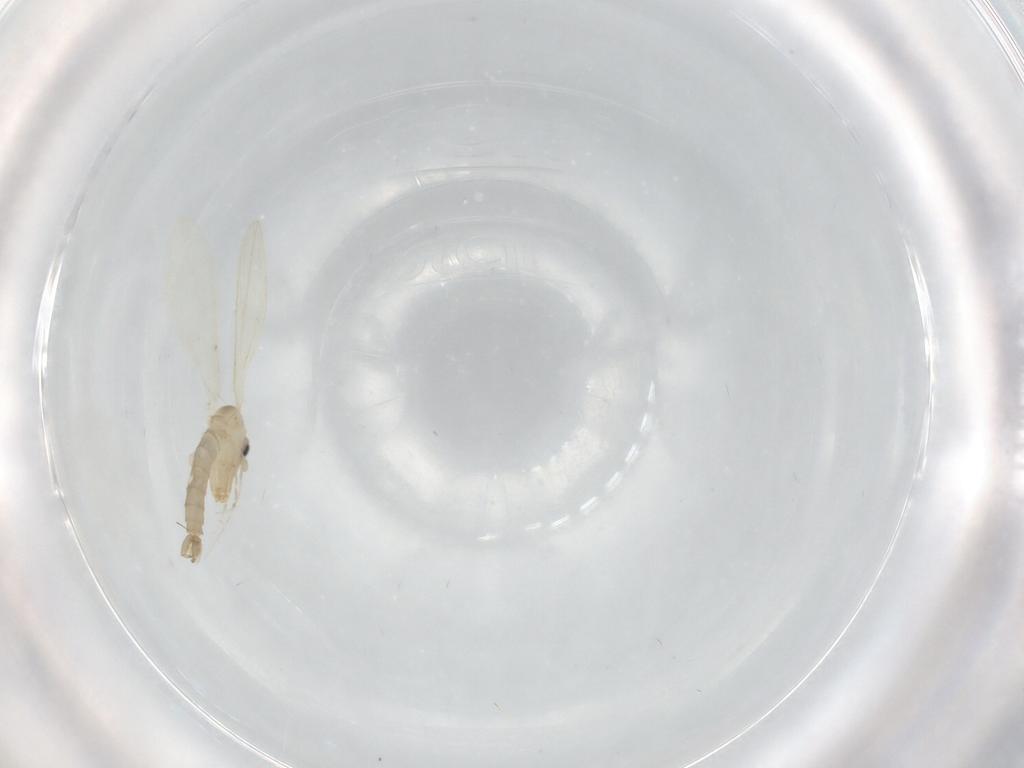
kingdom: Animalia
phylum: Arthropoda
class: Insecta
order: Diptera
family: Psychodidae
